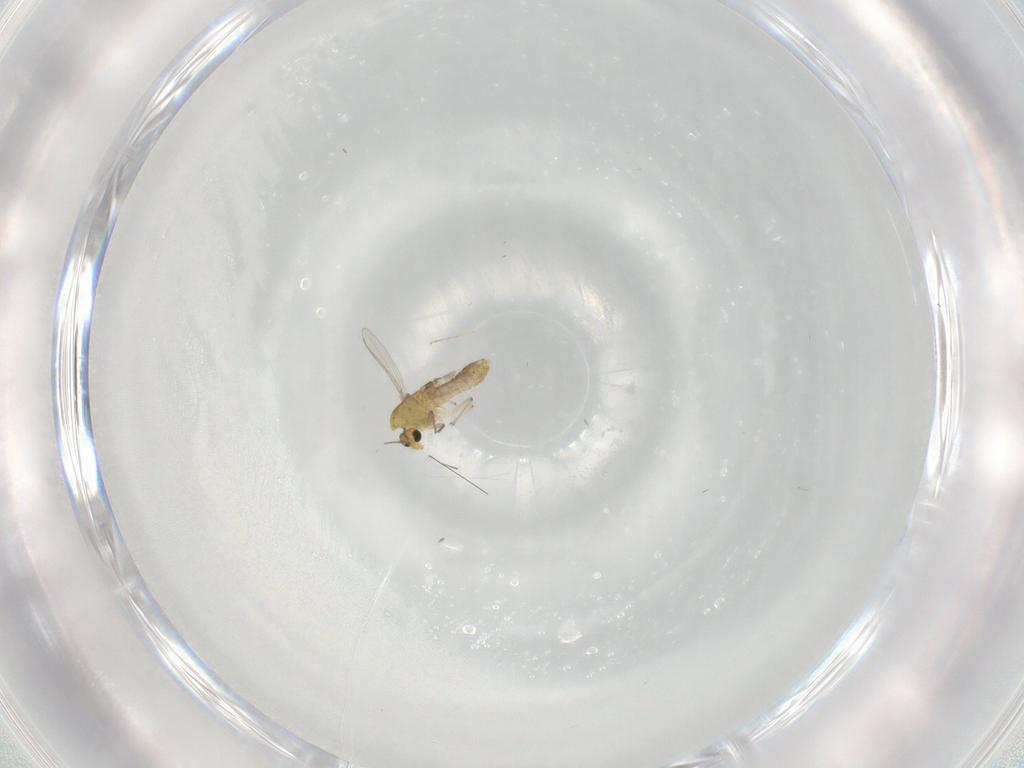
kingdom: Animalia
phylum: Arthropoda
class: Insecta
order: Diptera
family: Chironomidae
